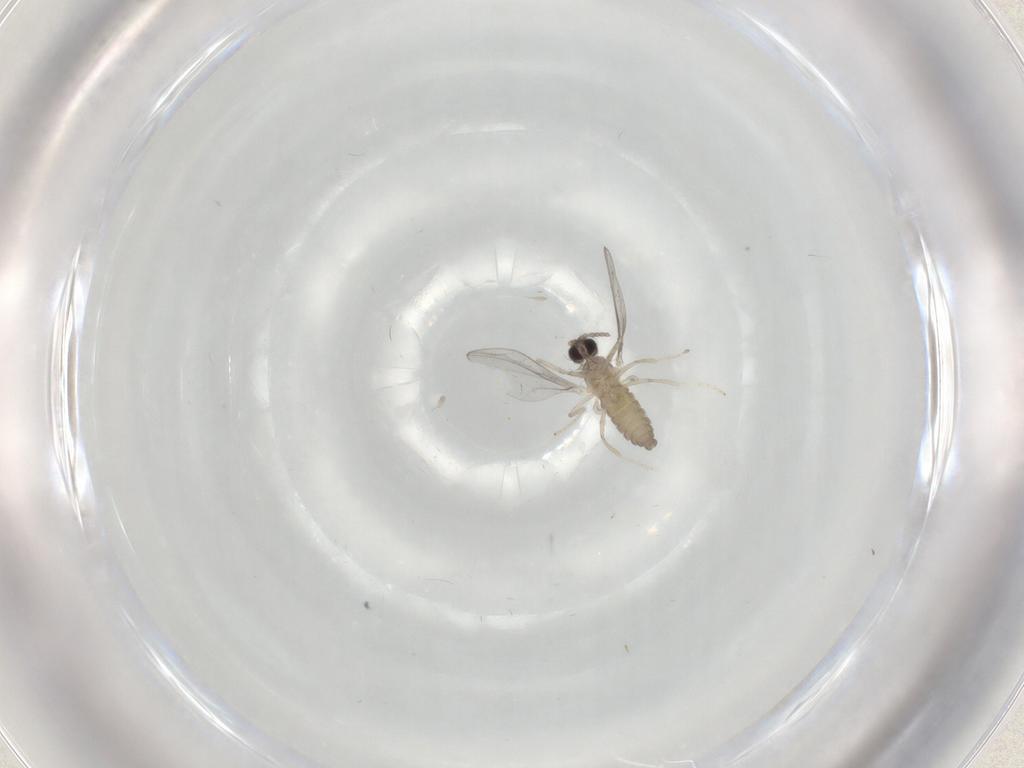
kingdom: Animalia
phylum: Arthropoda
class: Insecta
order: Diptera
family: Cecidomyiidae
